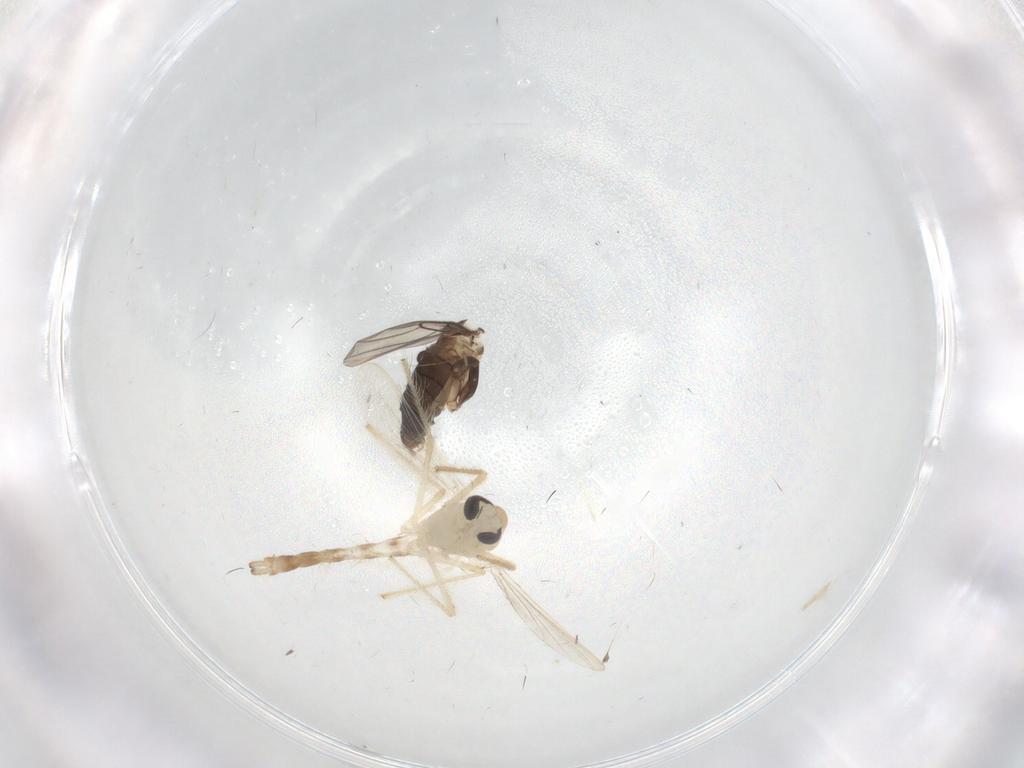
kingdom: Animalia
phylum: Arthropoda
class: Insecta
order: Diptera
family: Chironomidae
